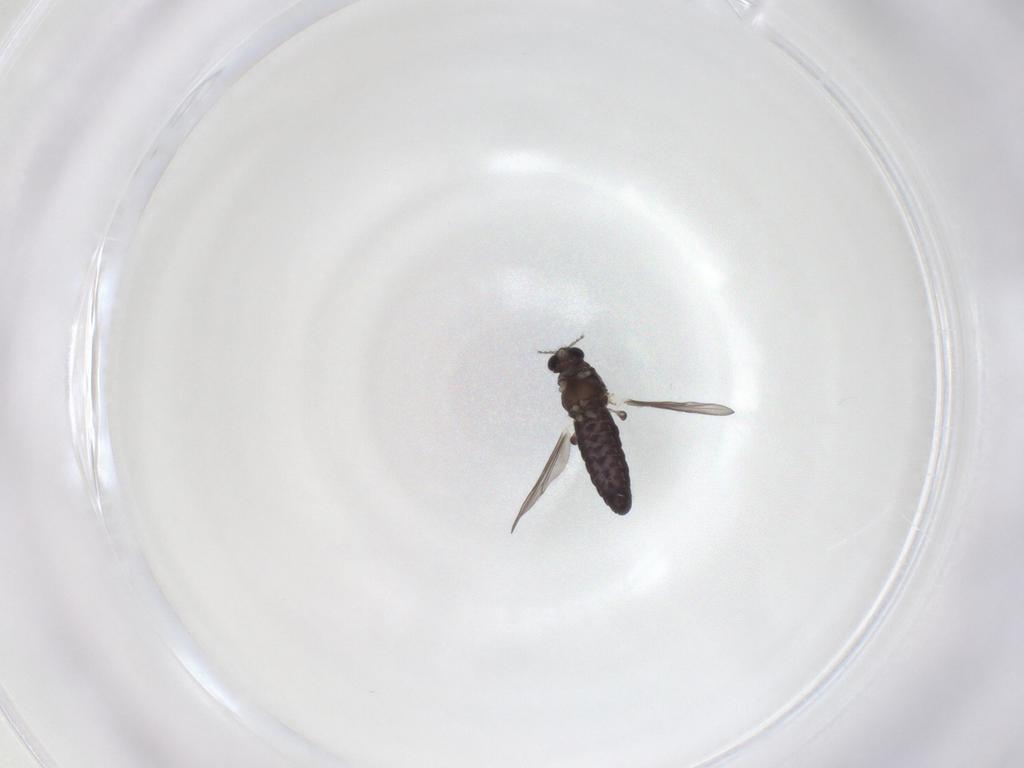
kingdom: Animalia
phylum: Arthropoda
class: Insecta
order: Diptera
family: Chironomidae
